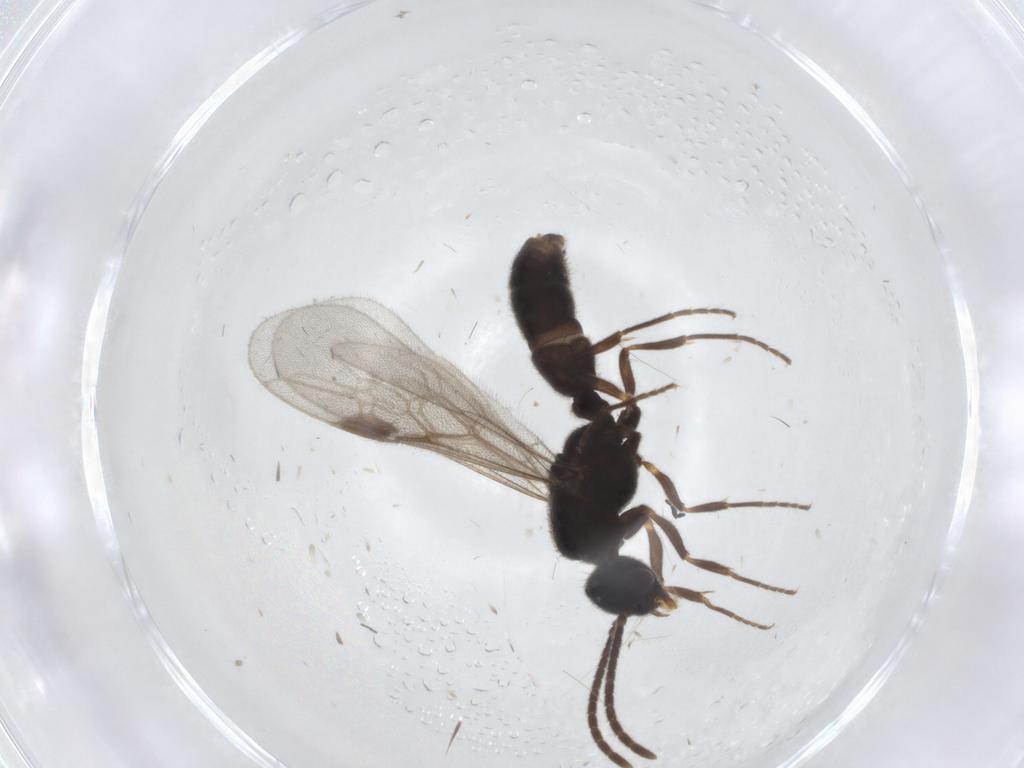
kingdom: Animalia
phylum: Arthropoda
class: Insecta
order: Hymenoptera
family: Formicidae
